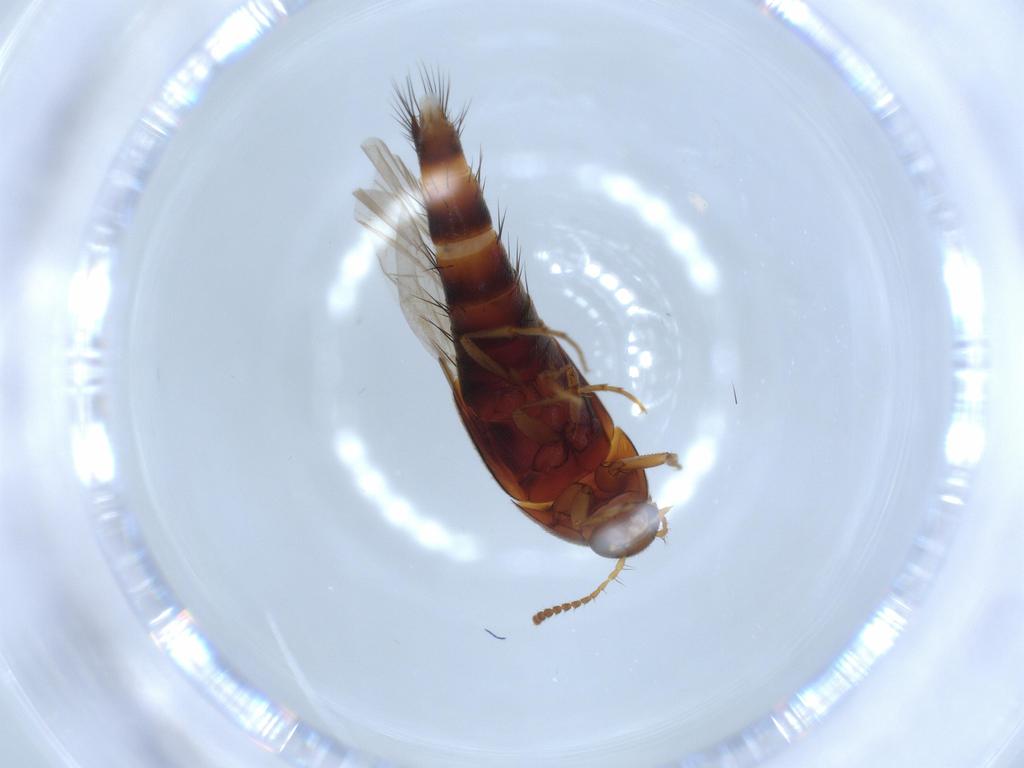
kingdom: Animalia
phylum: Arthropoda
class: Insecta
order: Coleoptera
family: Staphylinidae
